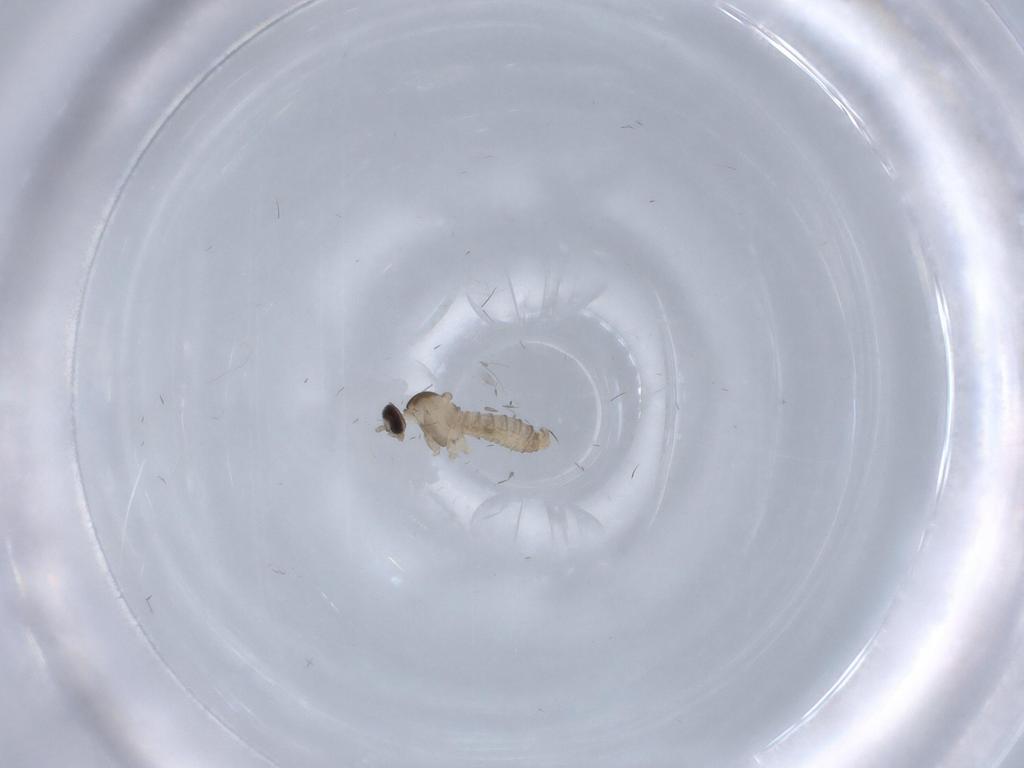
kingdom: Animalia
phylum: Arthropoda
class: Insecta
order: Diptera
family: Cecidomyiidae
